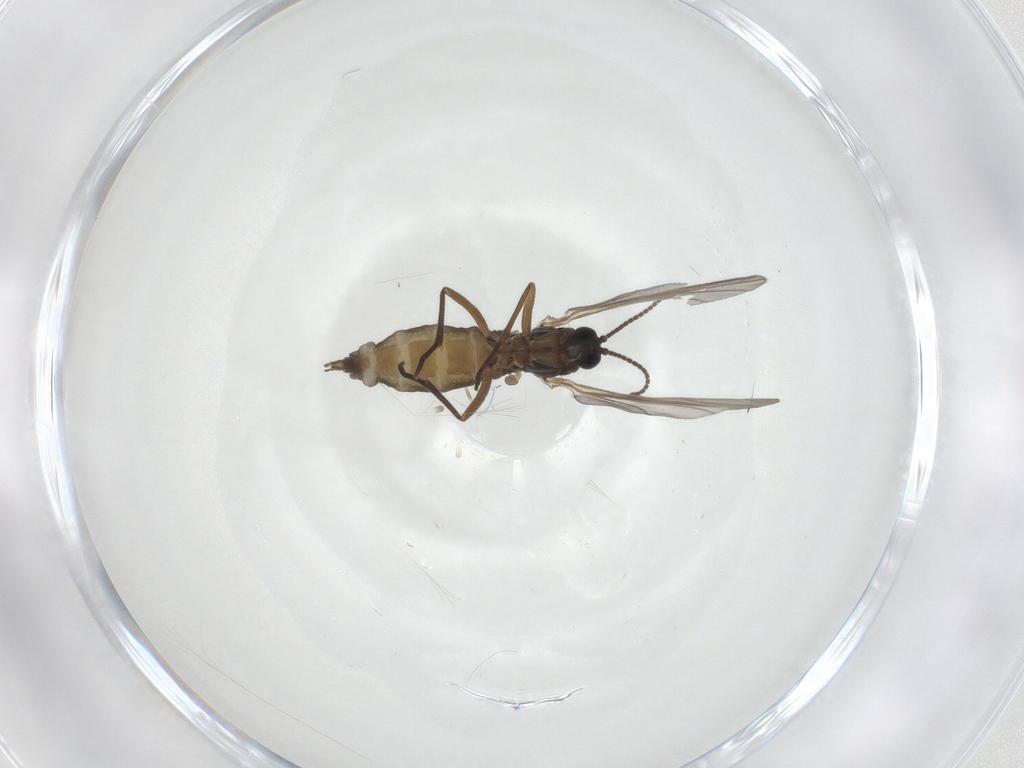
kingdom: Animalia
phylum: Arthropoda
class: Insecta
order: Diptera
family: Sciaridae
